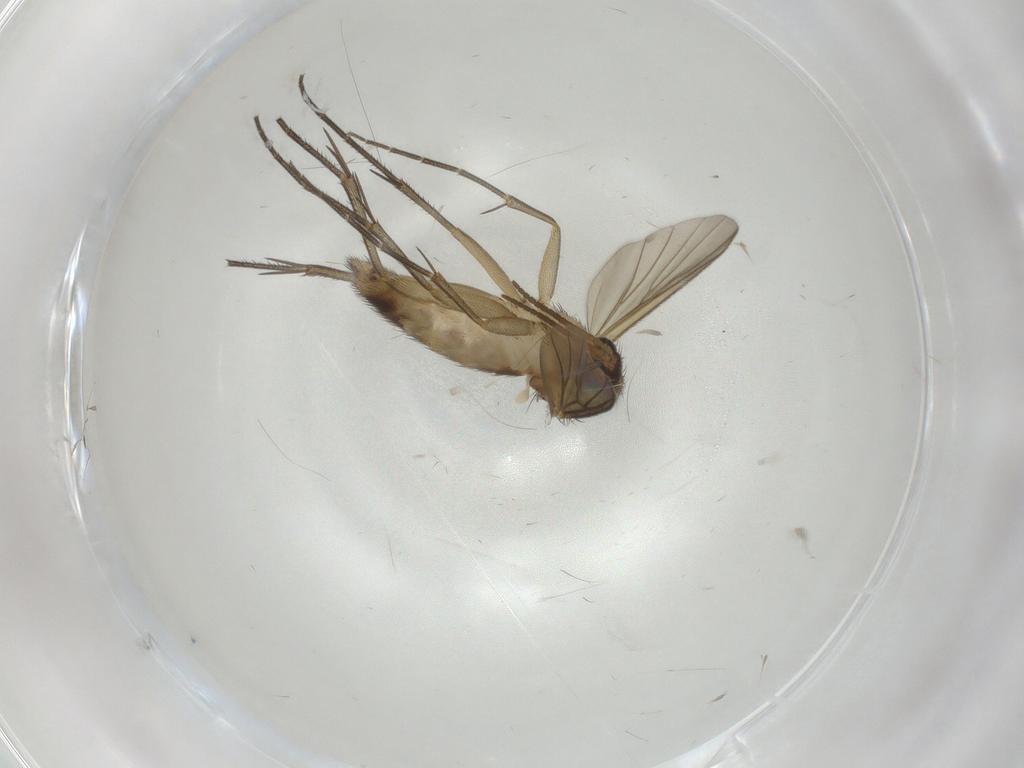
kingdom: Animalia
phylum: Arthropoda
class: Insecta
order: Diptera
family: Mycetophilidae
